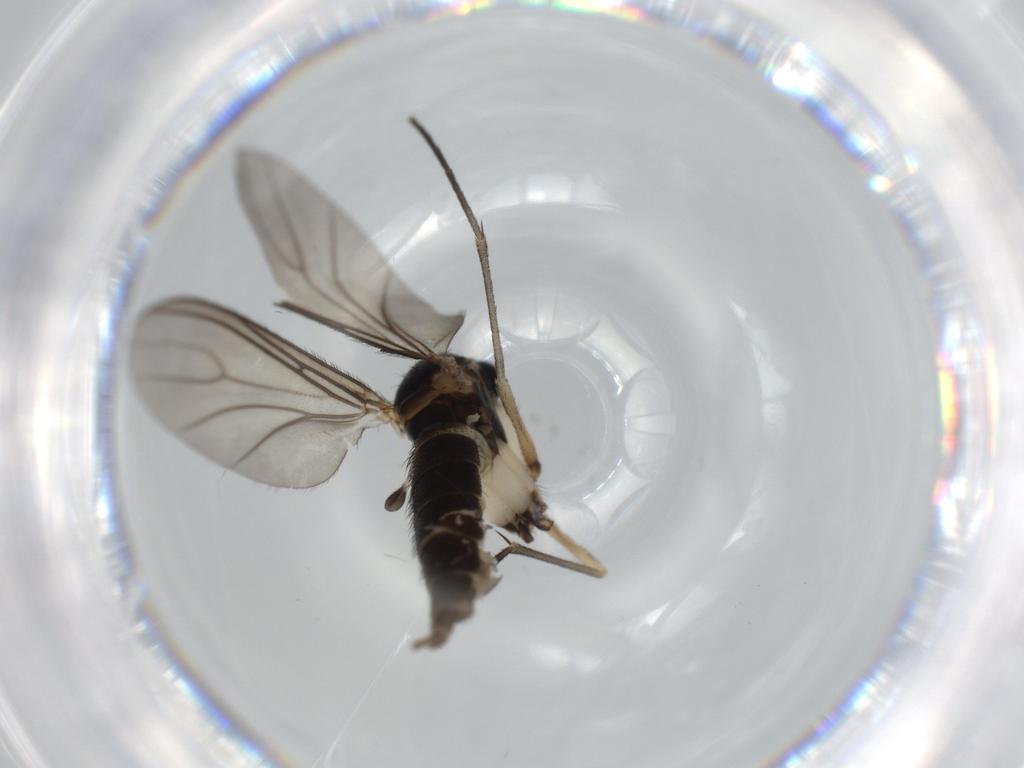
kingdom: Animalia
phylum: Arthropoda
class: Insecta
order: Diptera
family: Sciaridae
